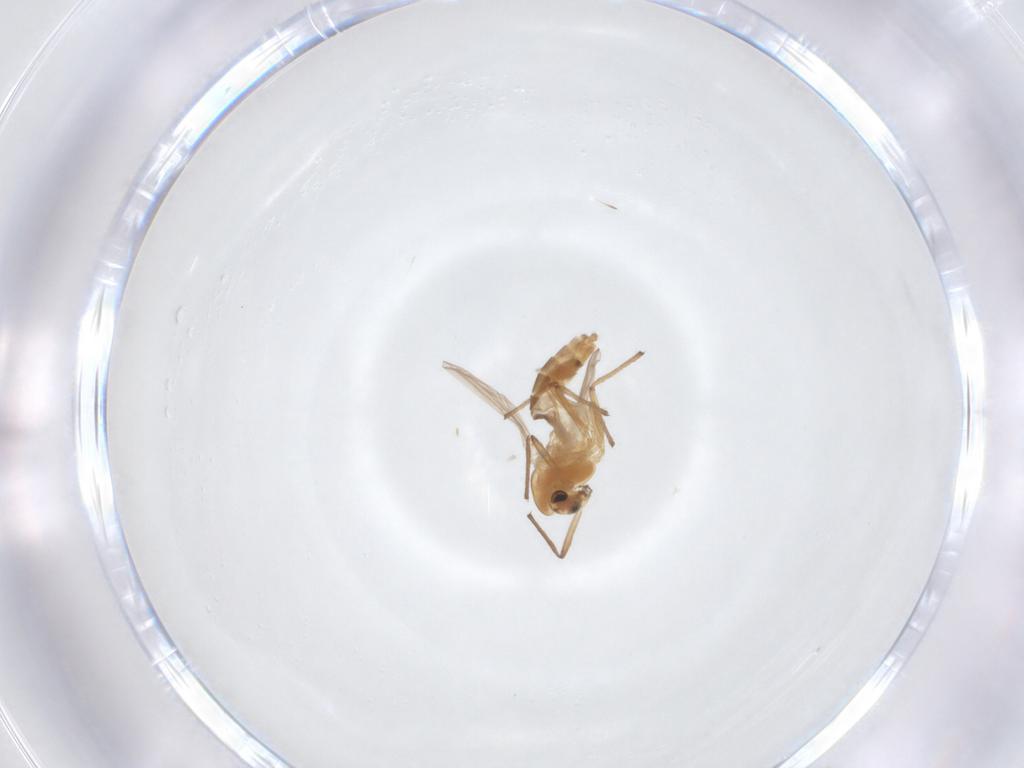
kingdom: Animalia
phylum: Arthropoda
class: Insecta
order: Diptera
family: Chironomidae
